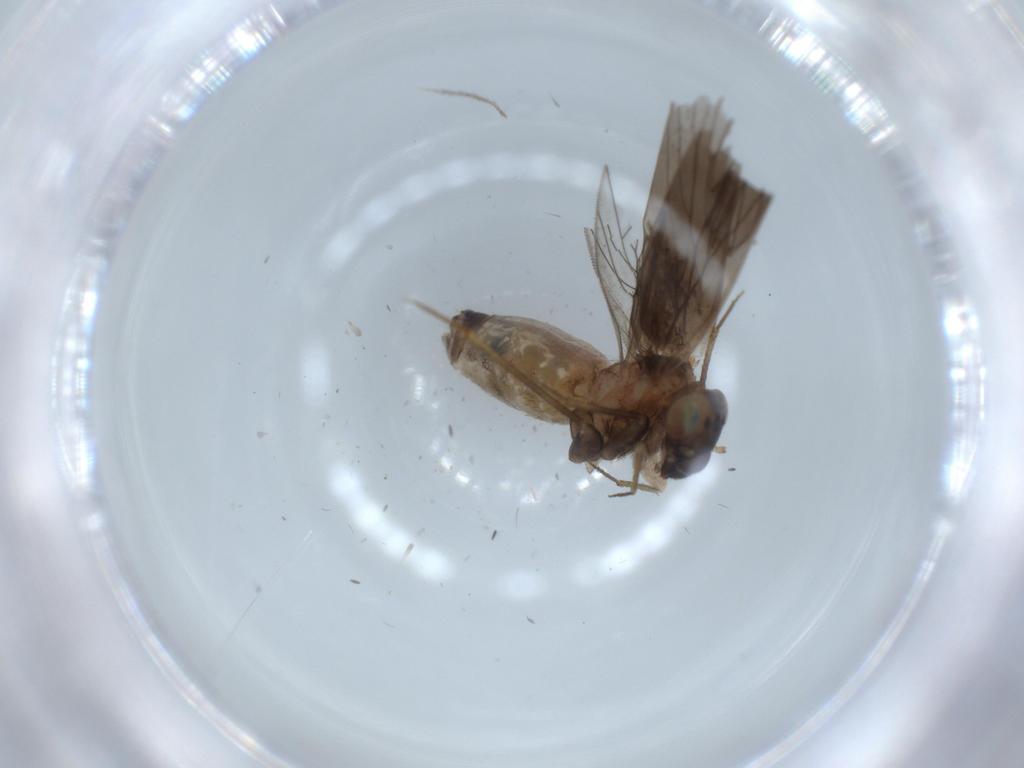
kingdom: Animalia
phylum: Arthropoda
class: Insecta
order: Psocodea
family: Lepidopsocidae
